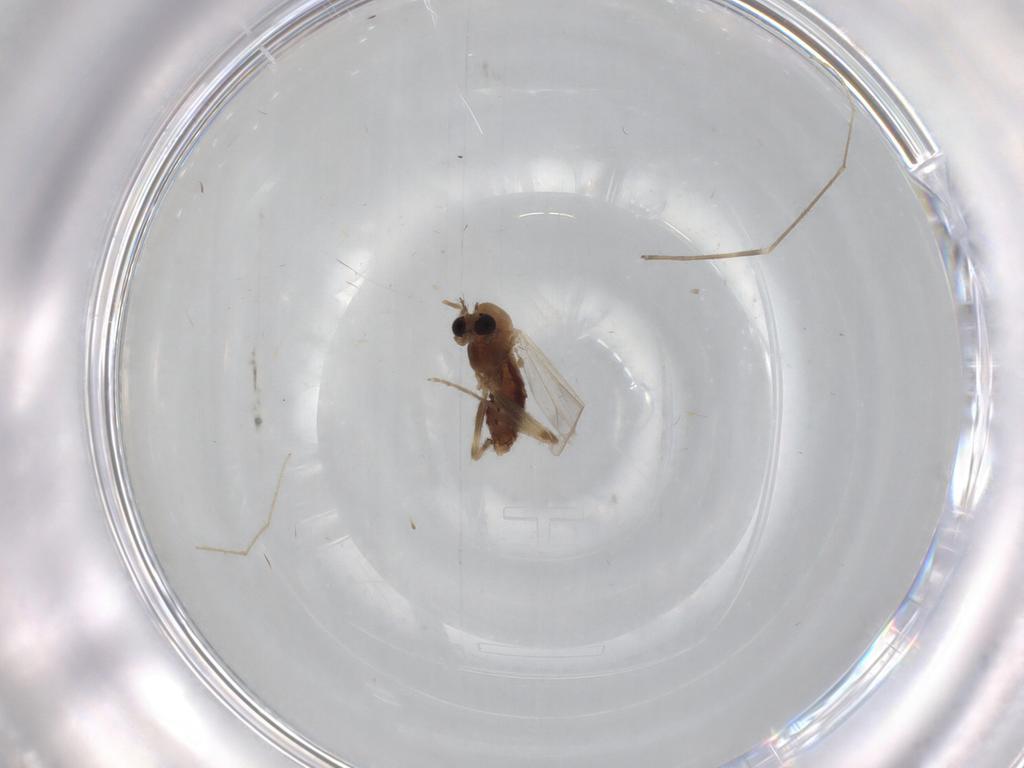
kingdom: Animalia
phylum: Arthropoda
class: Insecta
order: Diptera
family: Chironomidae
